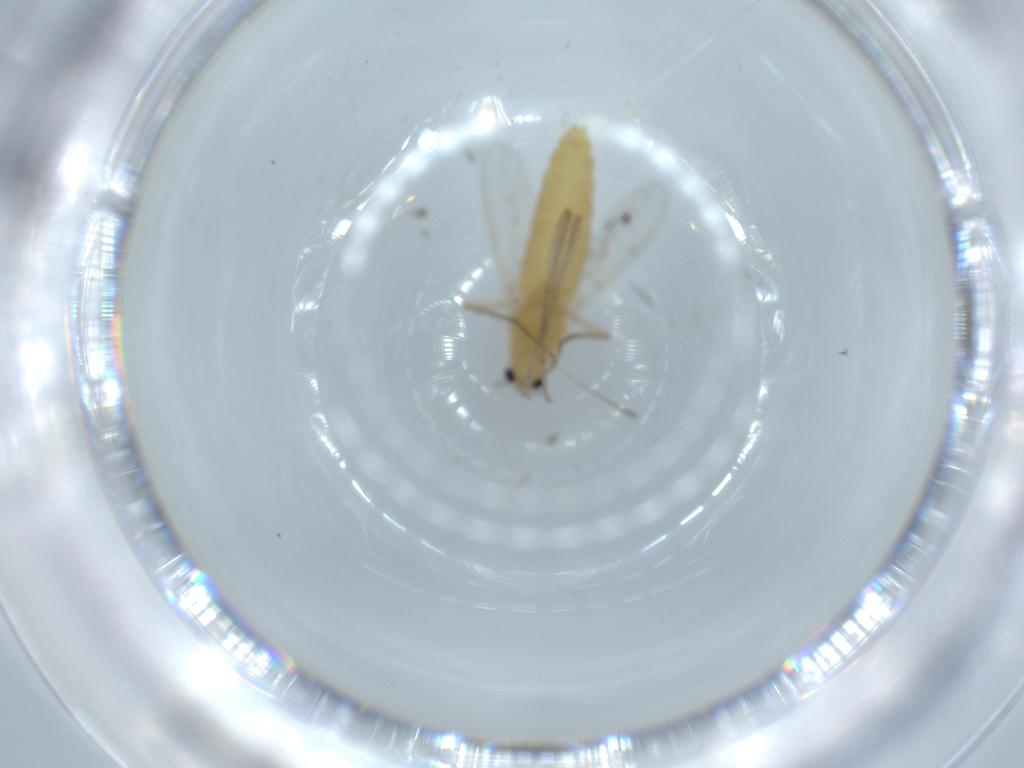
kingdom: Animalia
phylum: Arthropoda
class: Insecta
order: Diptera
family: Chironomidae
